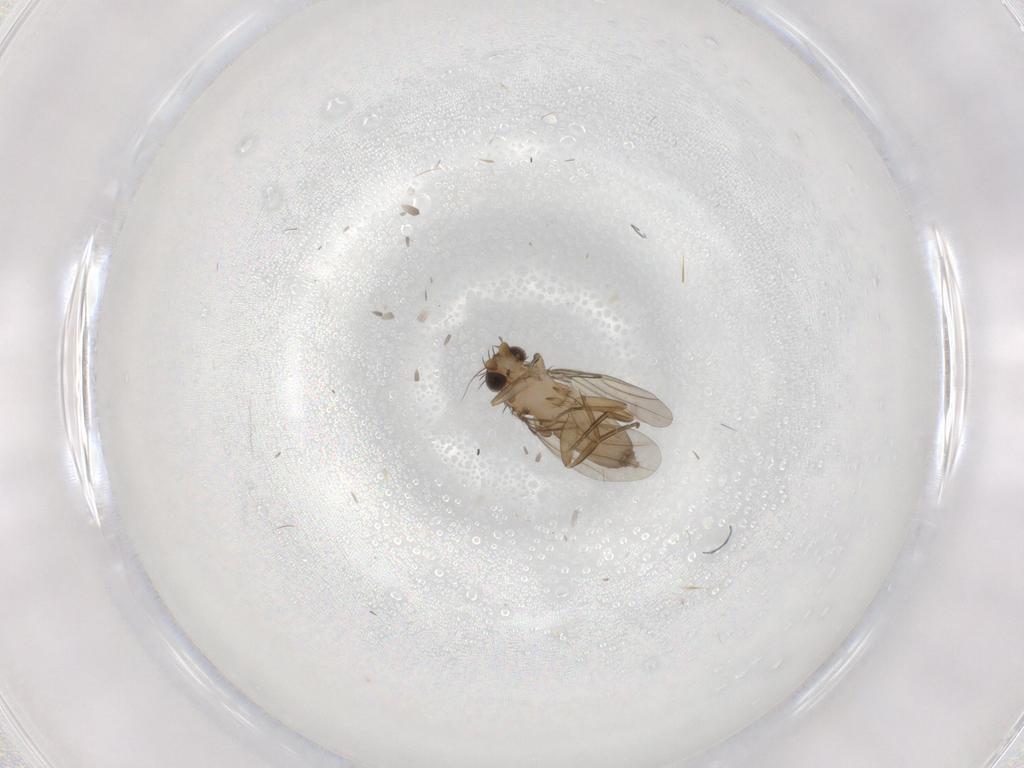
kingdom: Animalia
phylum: Arthropoda
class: Insecta
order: Diptera
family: Phoridae
